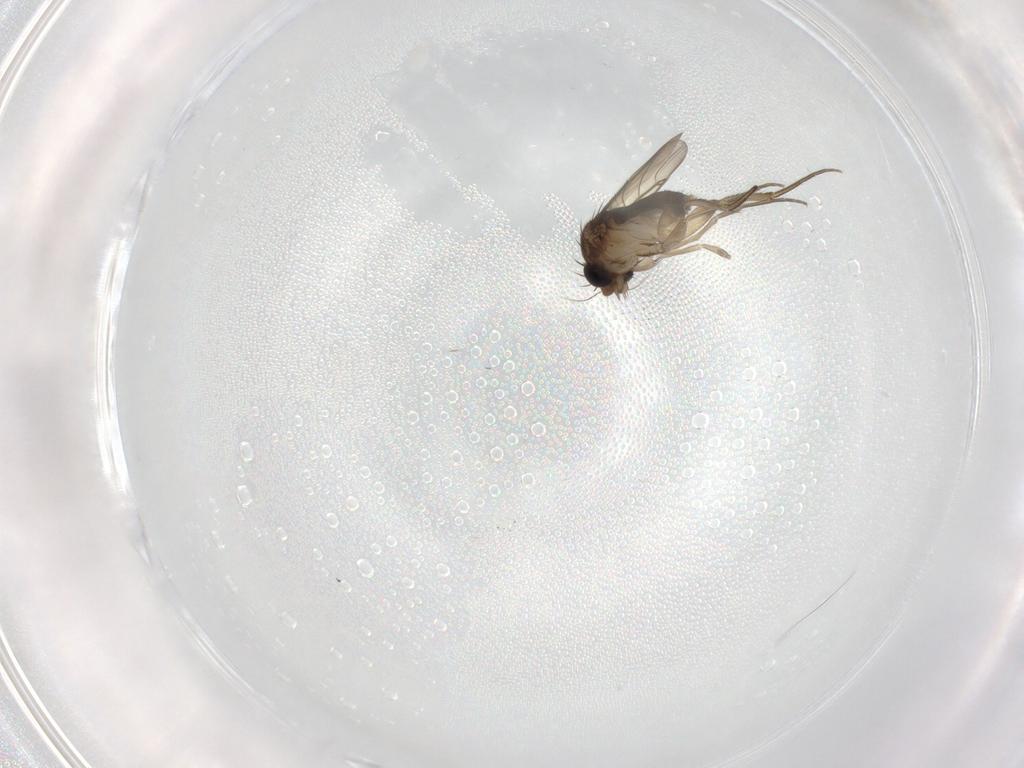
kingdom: Animalia
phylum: Arthropoda
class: Insecta
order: Diptera
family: Phoridae
